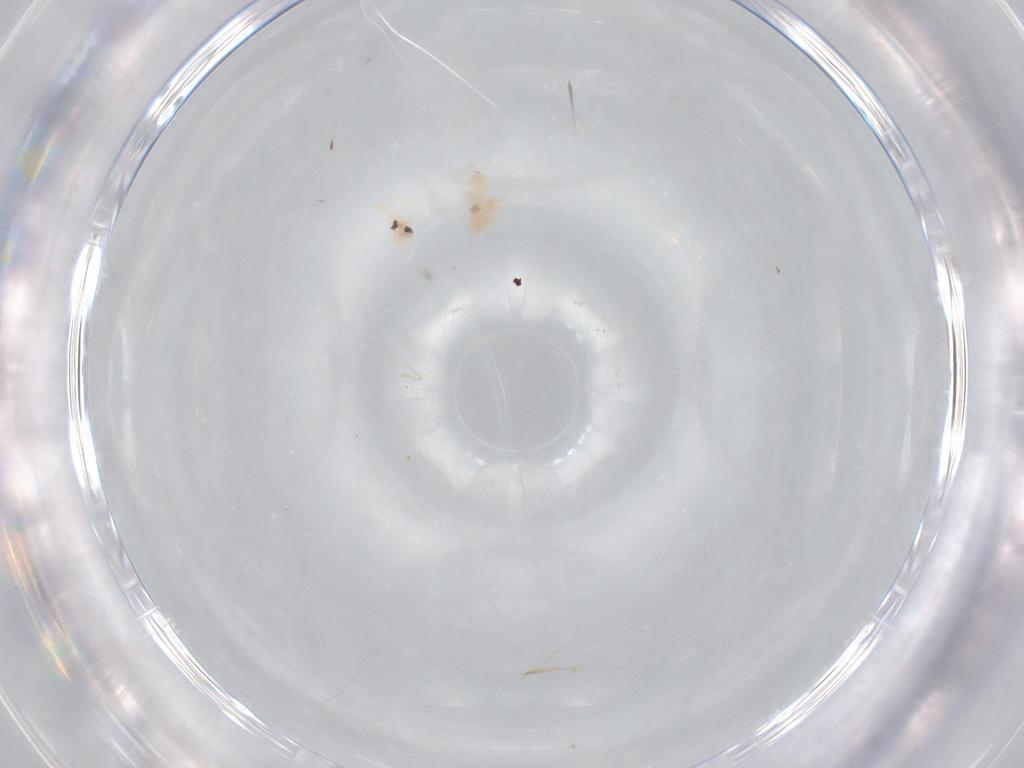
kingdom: Animalia
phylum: Arthropoda
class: Insecta
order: Hemiptera
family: Aleyrodidae
